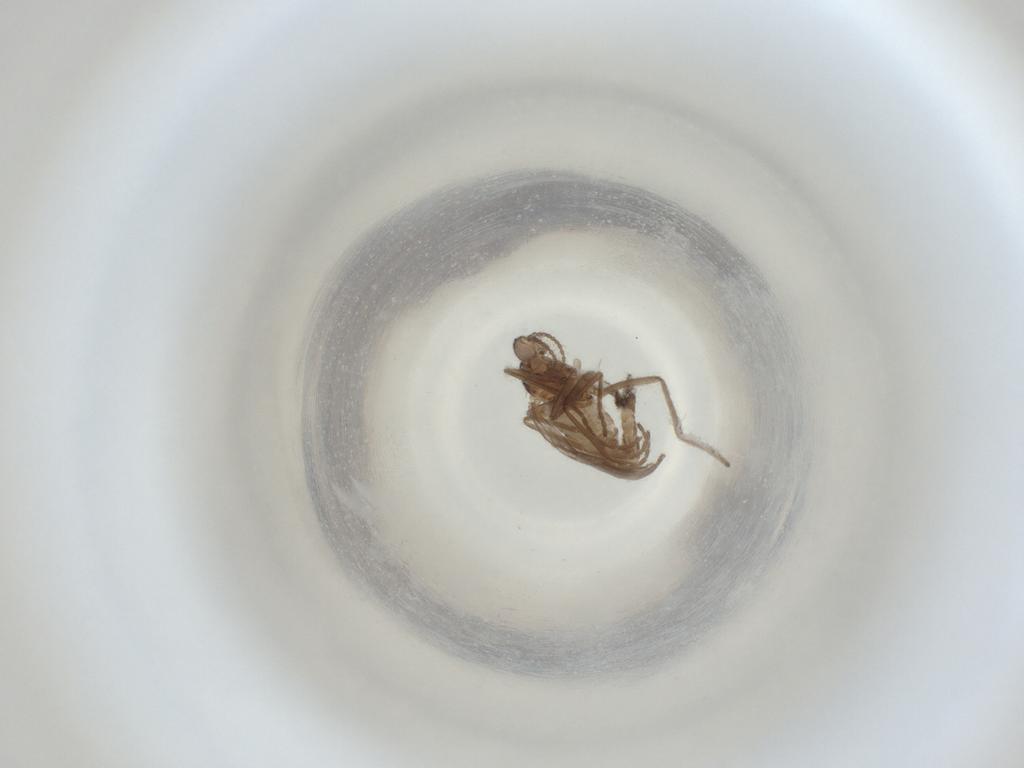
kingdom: Animalia
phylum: Arthropoda
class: Insecta
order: Diptera
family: Cecidomyiidae
